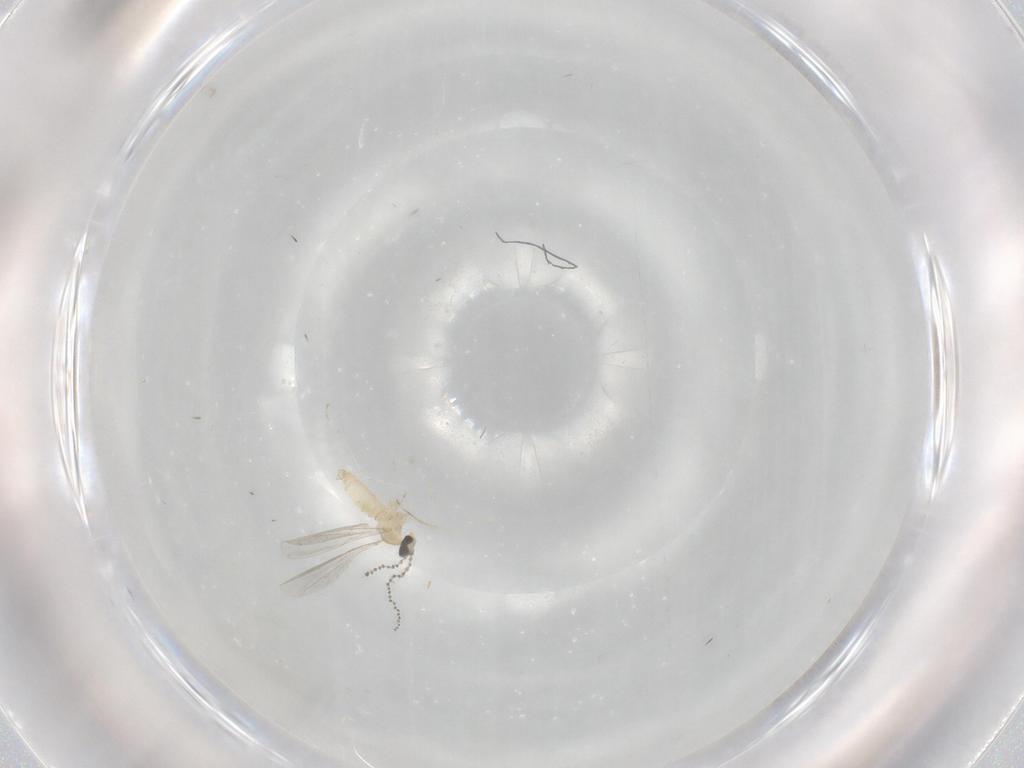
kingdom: Animalia
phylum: Arthropoda
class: Insecta
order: Diptera
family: Cecidomyiidae
